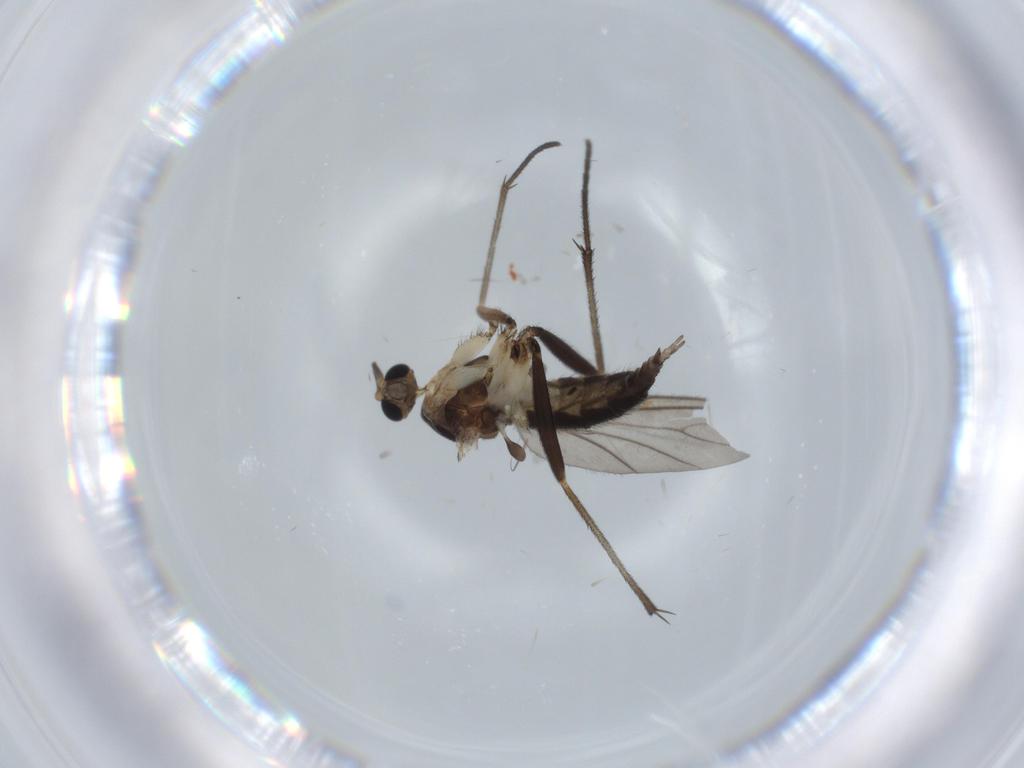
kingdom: Animalia
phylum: Arthropoda
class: Insecta
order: Diptera
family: Sciaridae
